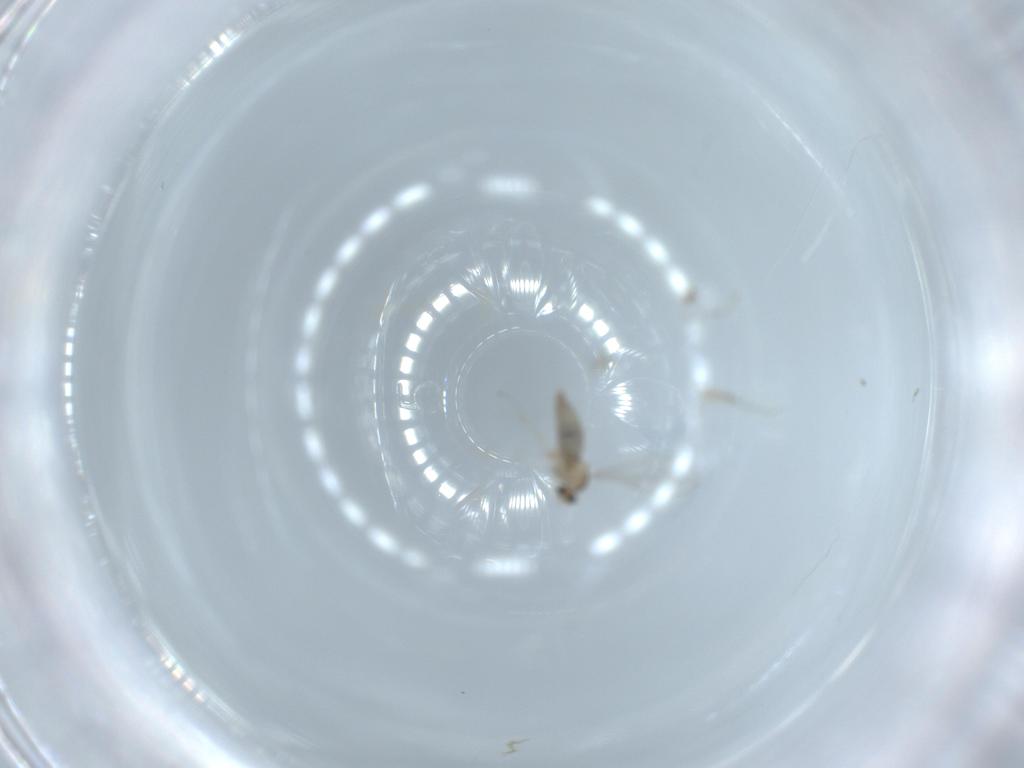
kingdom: Animalia
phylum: Arthropoda
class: Insecta
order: Diptera
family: Cecidomyiidae
